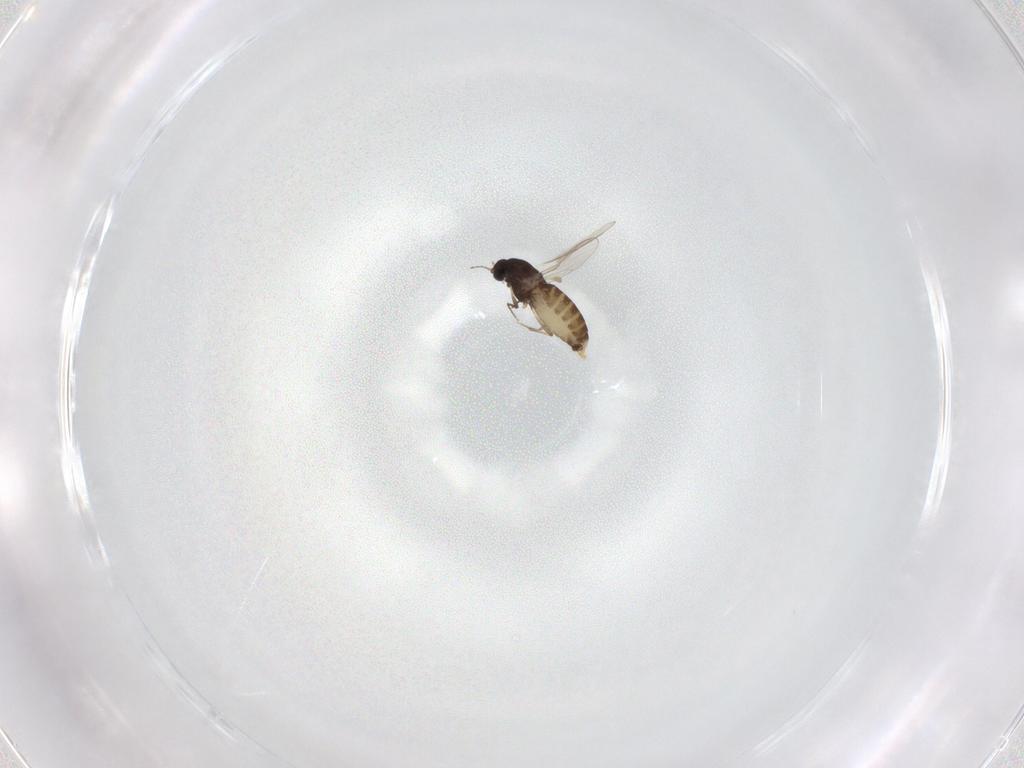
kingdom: Animalia
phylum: Arthropoda
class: Insecta
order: Diptera
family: Chironomidae
